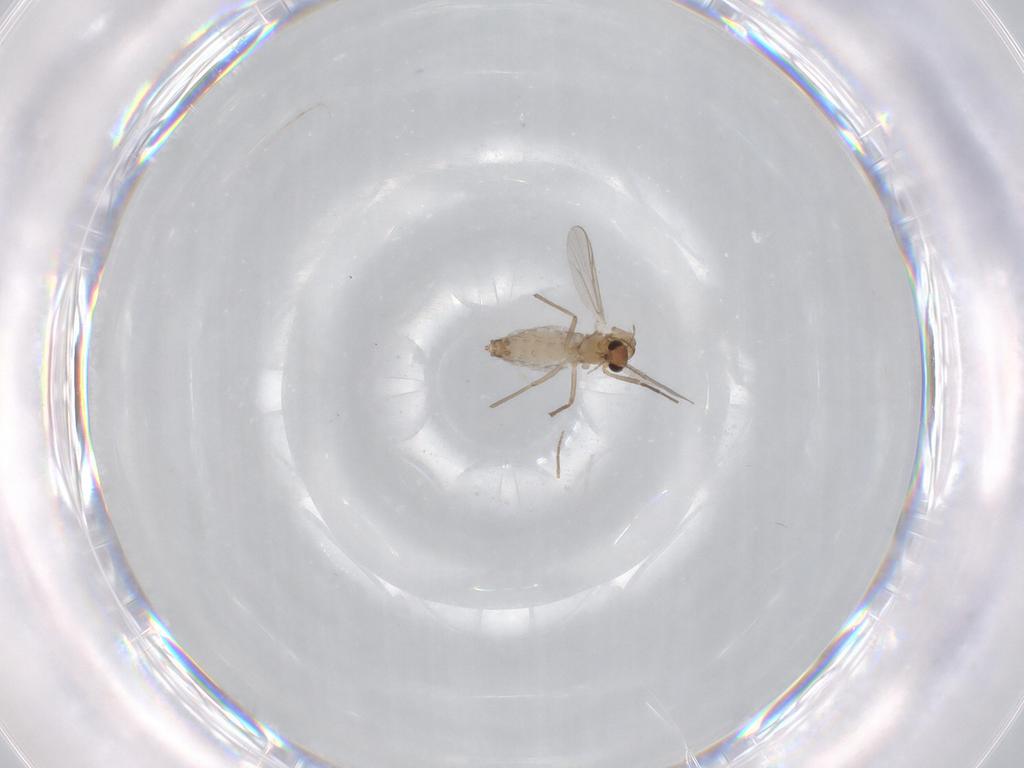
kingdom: Animalia
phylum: Arthropoda
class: Insecta
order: Diptera
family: Chironomidae
